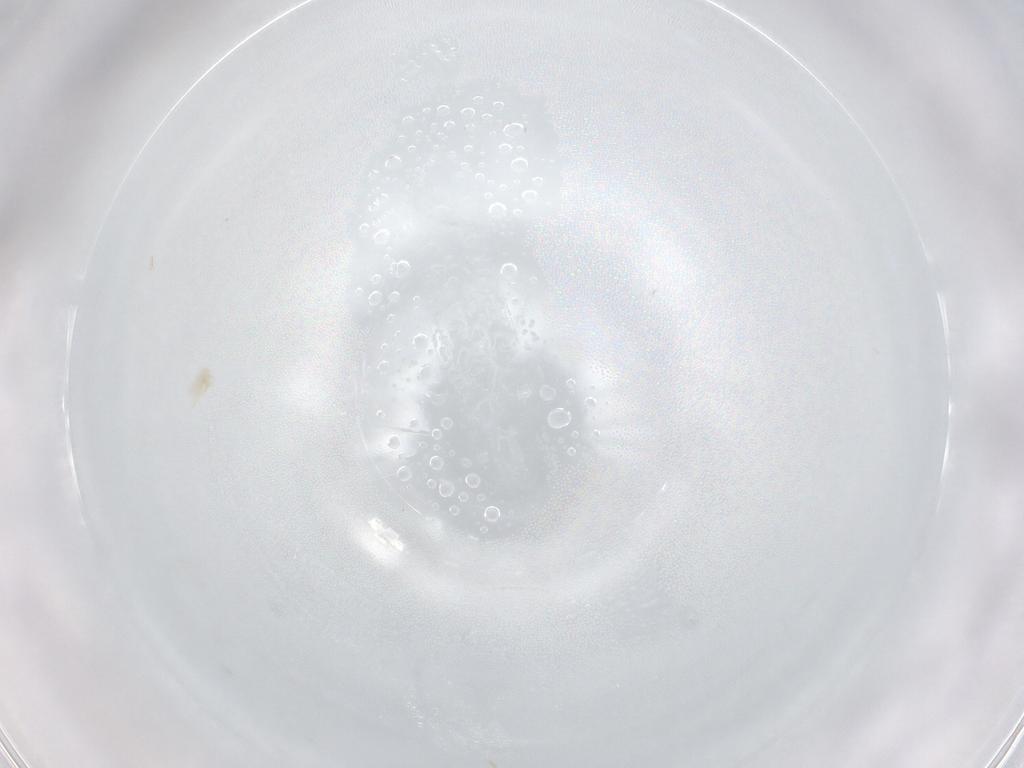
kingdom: Animalia
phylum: Arthropoda
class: Arachnida
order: Trombidiformes
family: Erythraeidae
